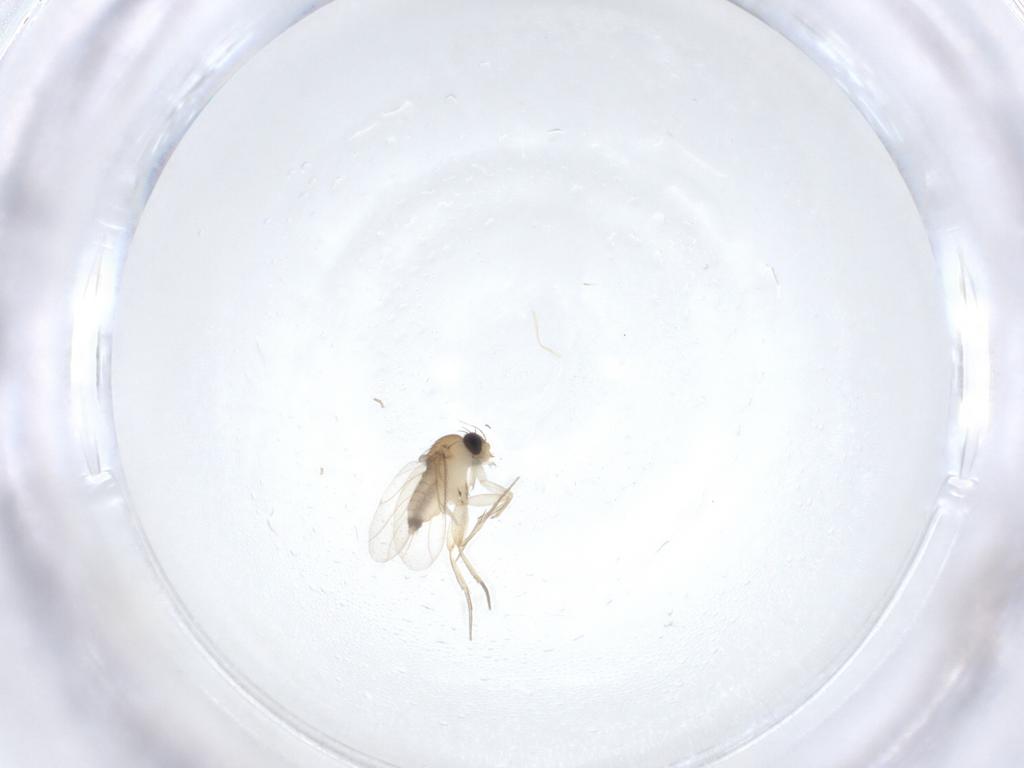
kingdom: Animalia
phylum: Arthropoda
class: Insecta
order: Diptera
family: Phoridae
